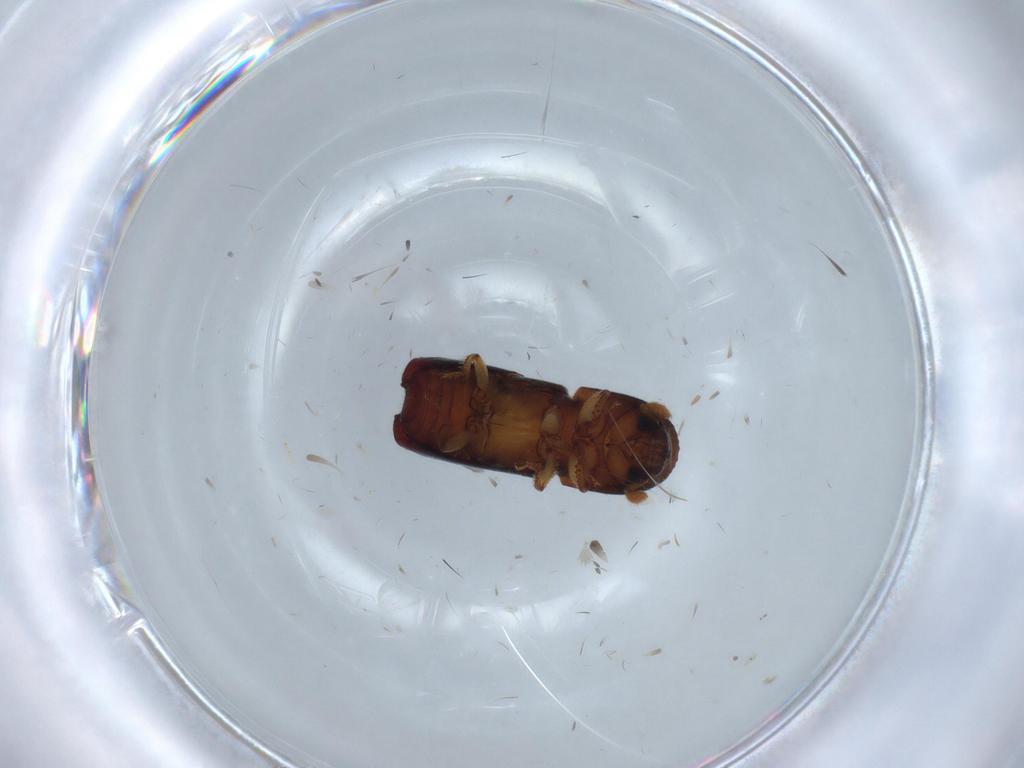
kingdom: Animalia
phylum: Arthropoda
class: Insecta
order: Coleoptera
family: Curculionidae
